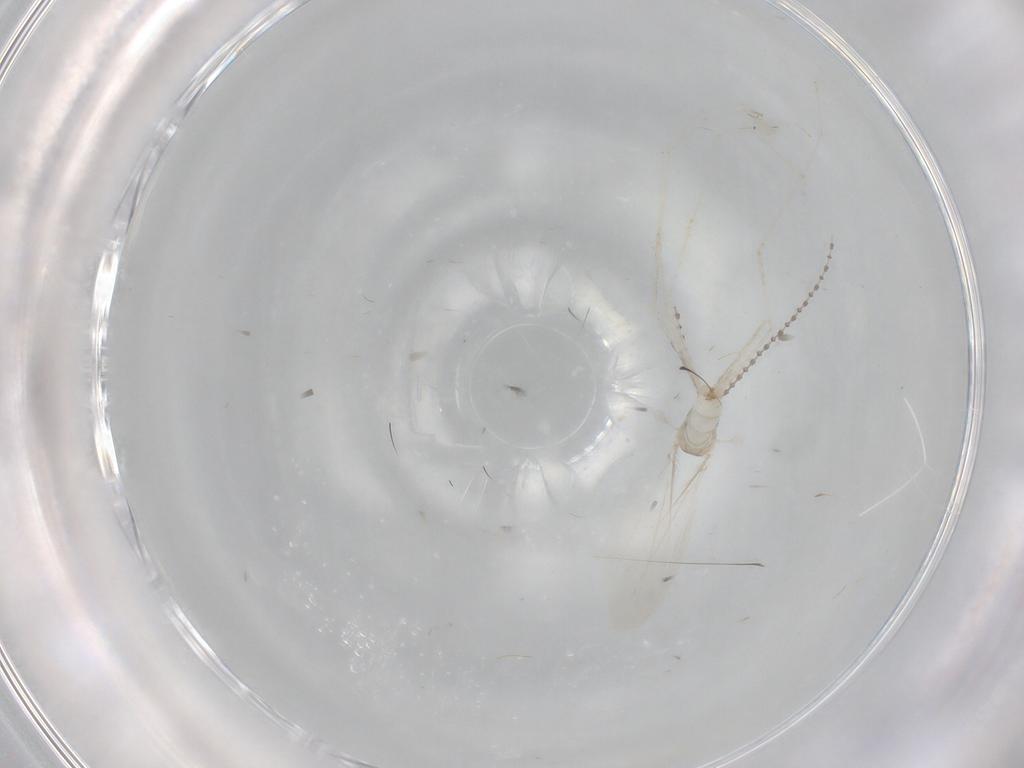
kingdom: Animalia
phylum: Arthropoda
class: Insecta
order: Diptera
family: Cecidomyiidae
